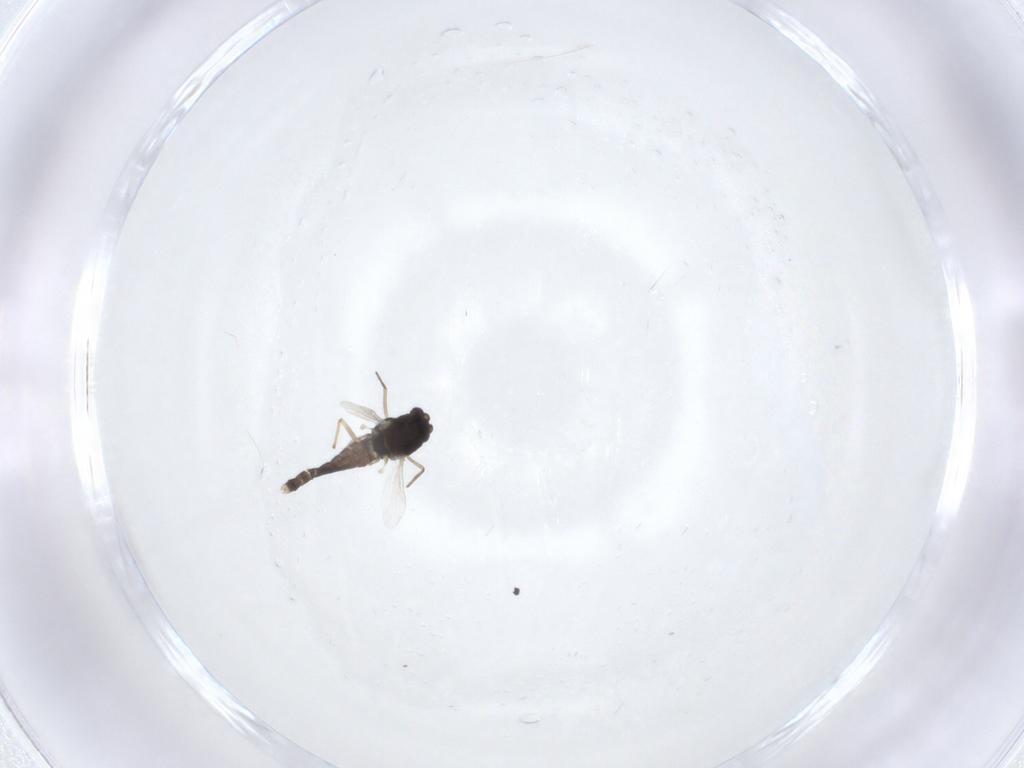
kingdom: Animalia
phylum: Arthropoda
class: Insecta
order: Diptera
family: Chironomidae
